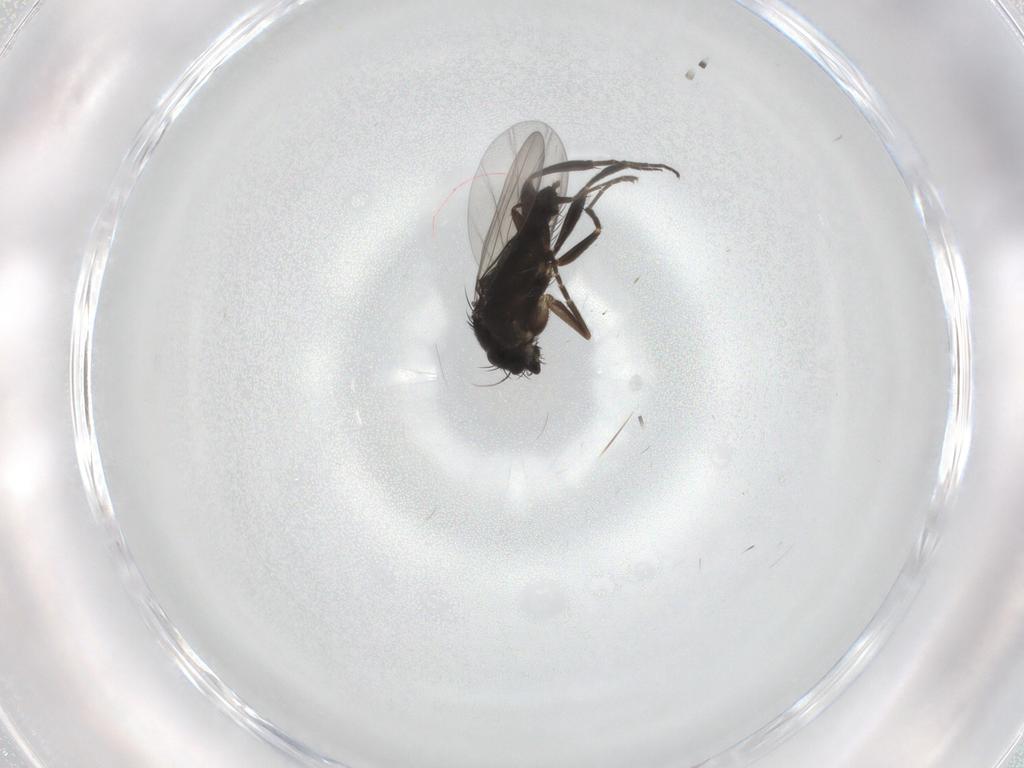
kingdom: Animalia
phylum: Arthropoda
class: Insecta
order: Diptera
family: Phoridae
